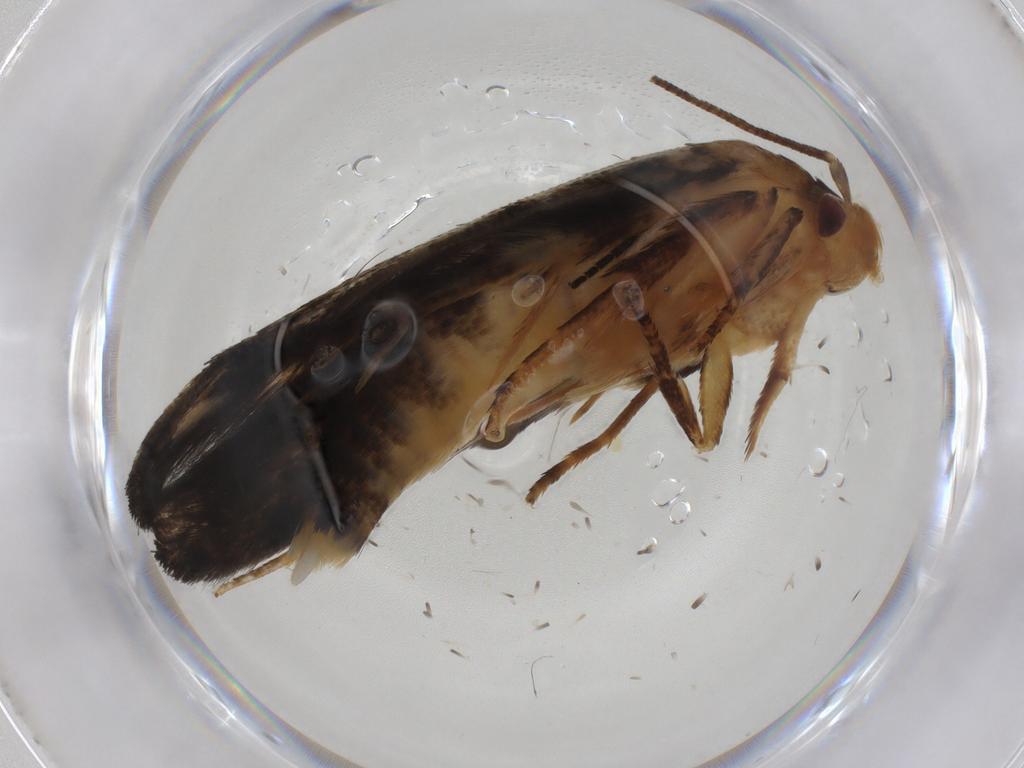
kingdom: Animalia
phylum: Arthropoda
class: Insecta
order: Lepidoptera
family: Momphidae
